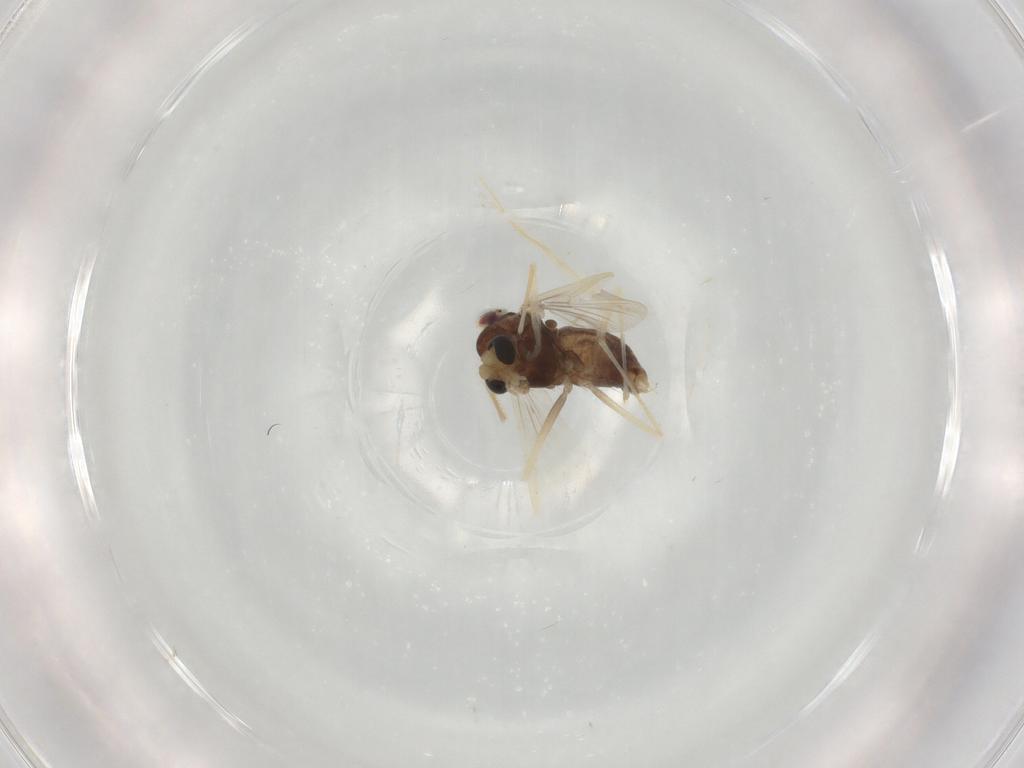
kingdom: Animalia
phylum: Arthropoda
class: Insecta
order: Diptera
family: Chironomidae
